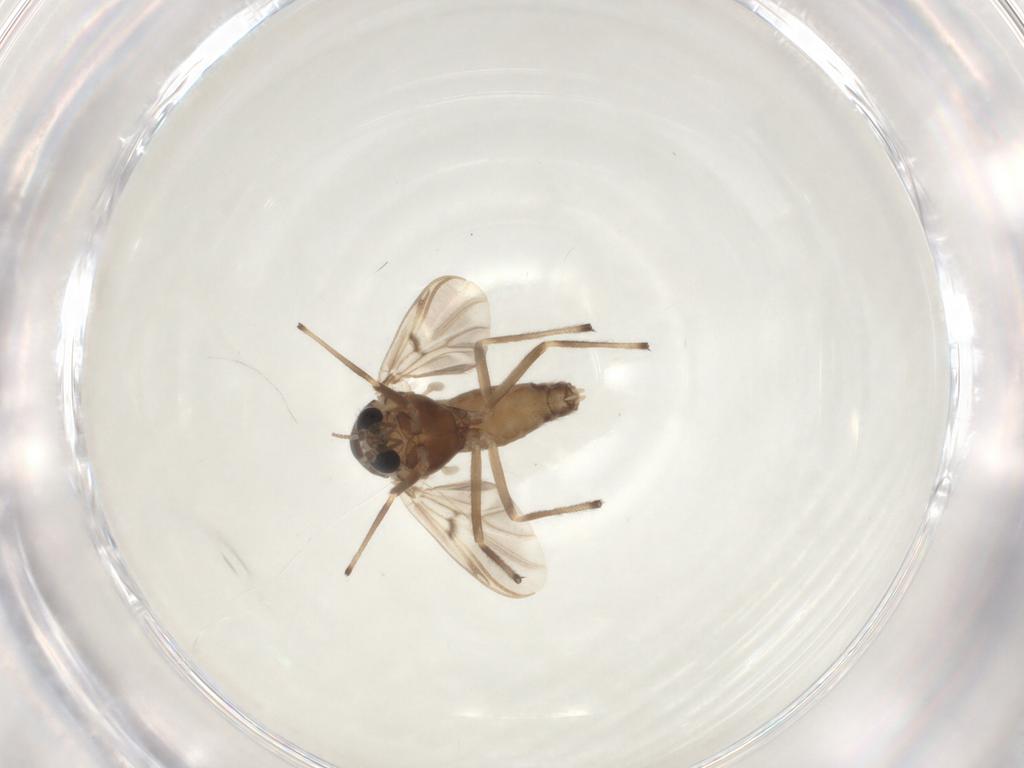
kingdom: Animalia
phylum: Arthropoda
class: Insecta
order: Diptera
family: Chironomidae
